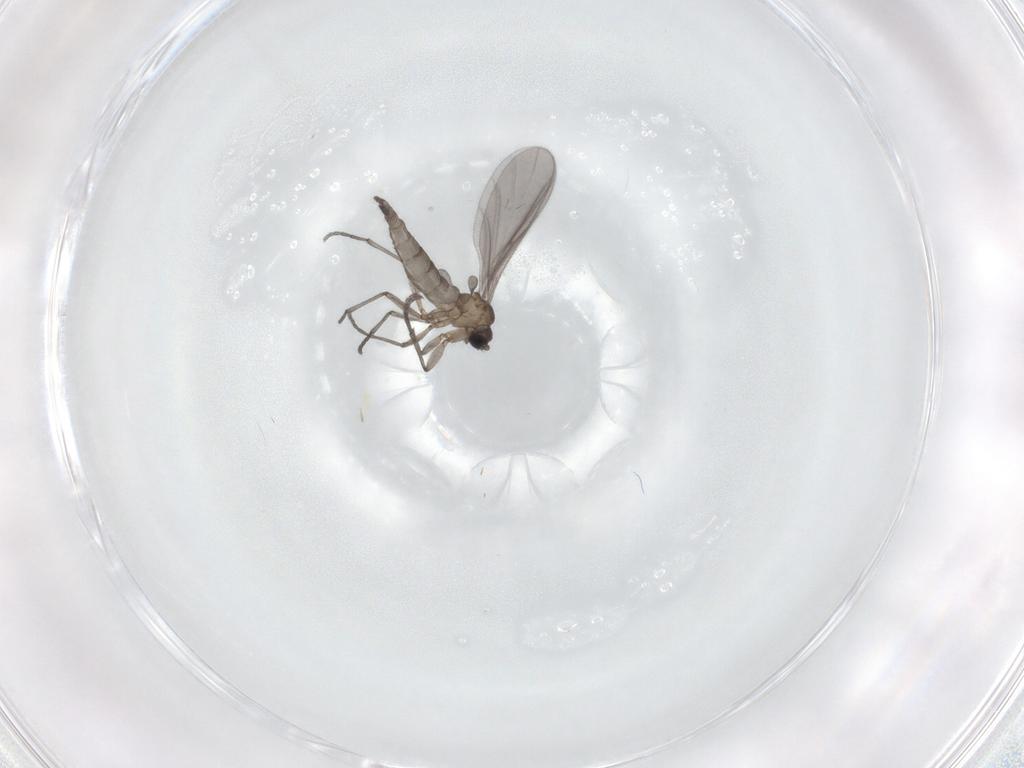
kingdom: Animalia
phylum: Arthropoda
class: Insecta
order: Diptera
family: Sciaridae
